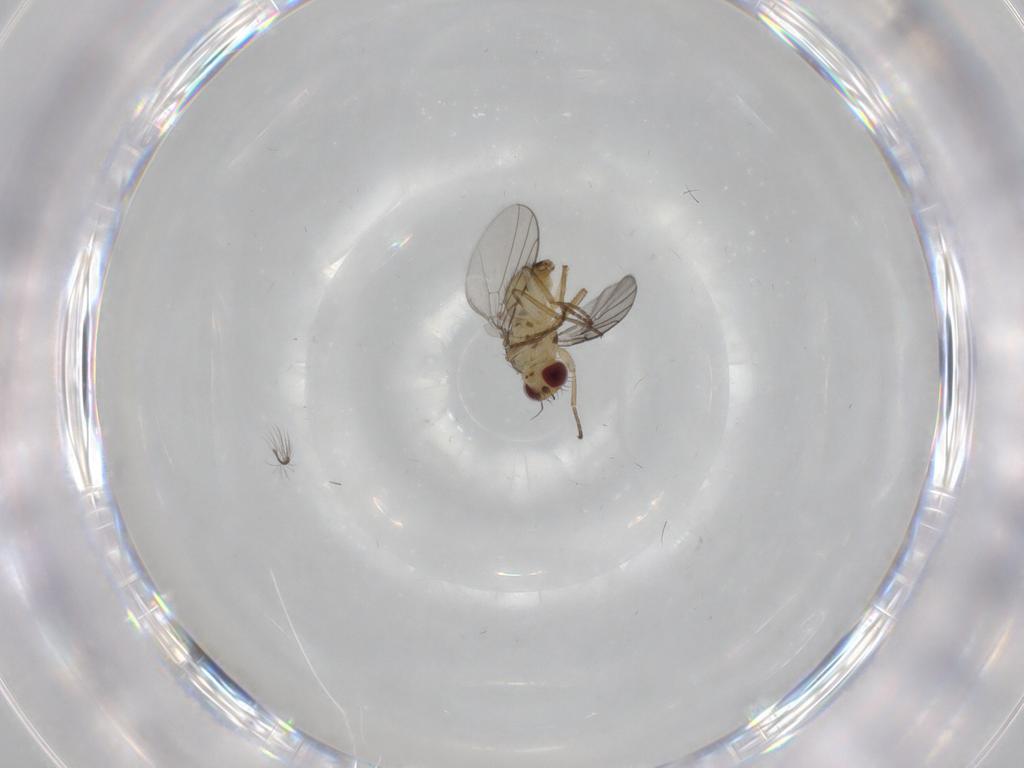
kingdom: Animalia
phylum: Arthropoda
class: Insecta
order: Diptera
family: Agromyzidae
